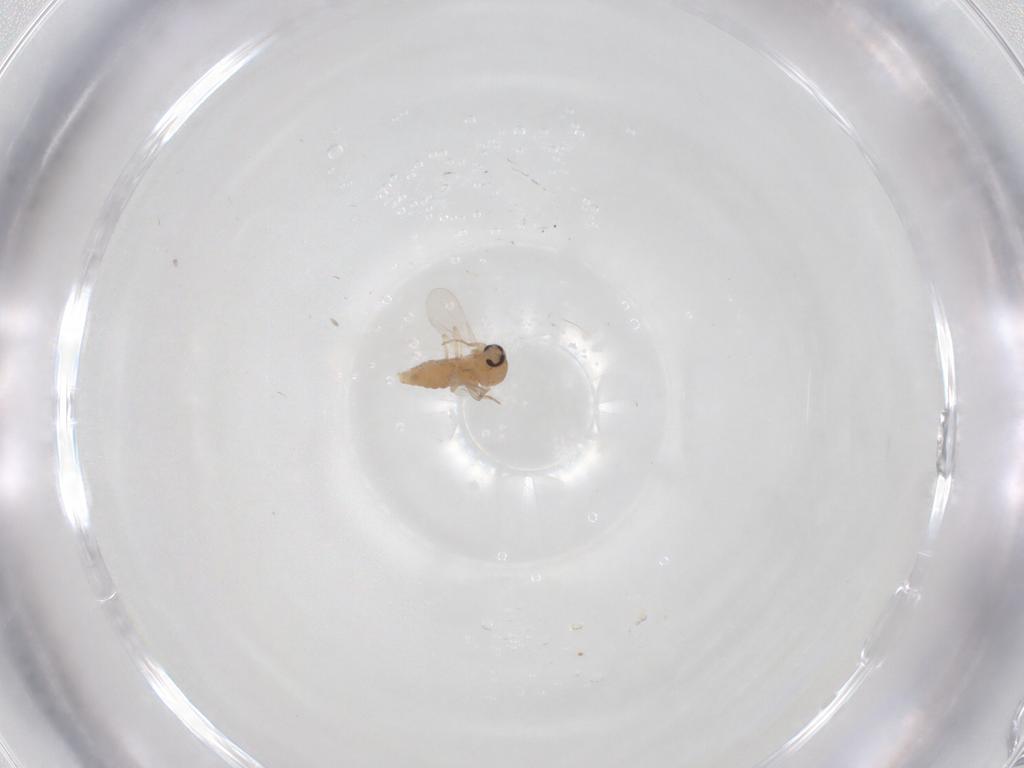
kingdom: Animalia
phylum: Arthropoda
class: Insecta
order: Diptera
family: Ceratopogonidae
